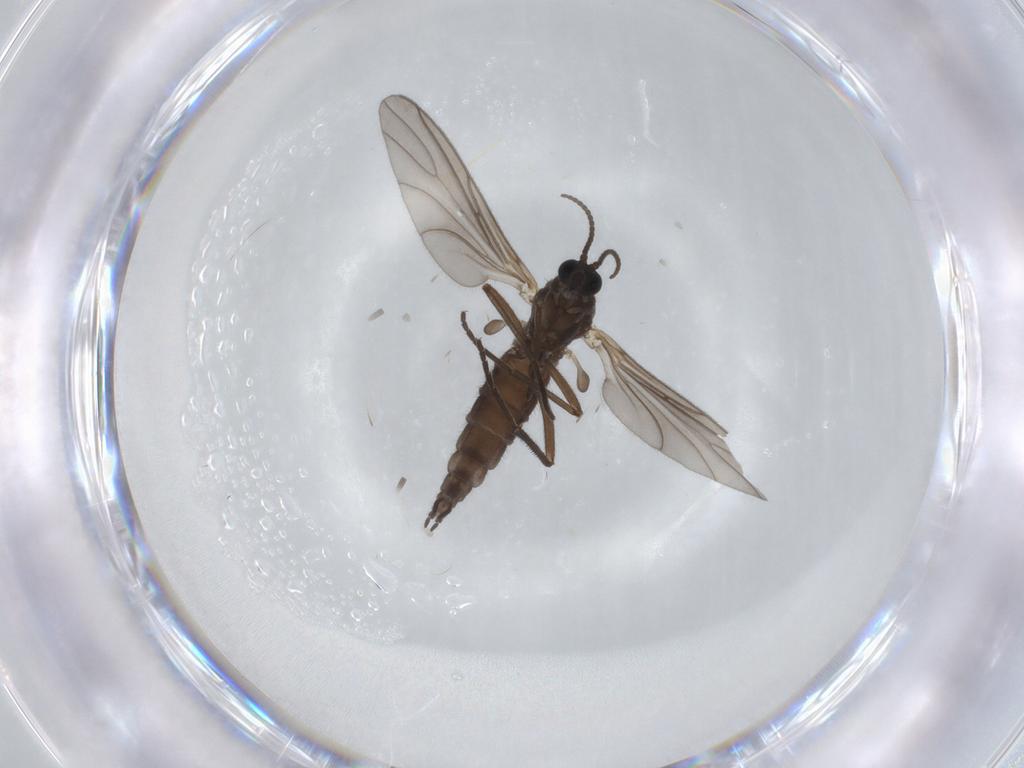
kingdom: Animalia
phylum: Arthropoda
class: Insecta
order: Diptera
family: Sciaridae
